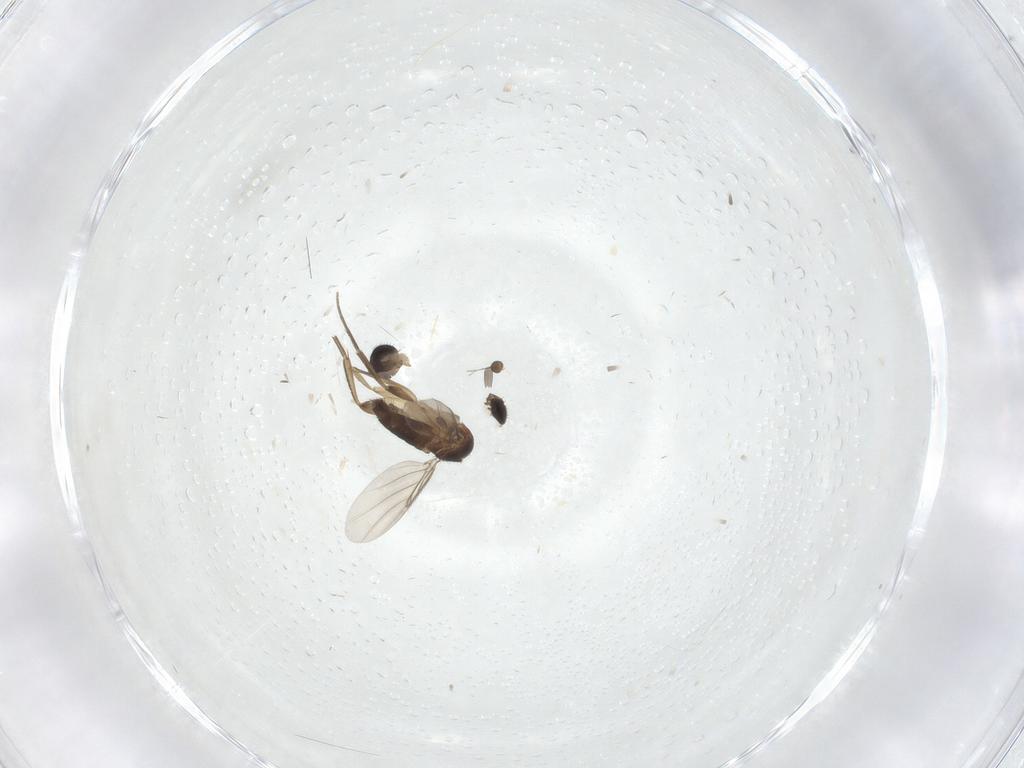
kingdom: Animalia
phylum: Arthropoda
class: Insecta
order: Diptera
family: Phoridae
